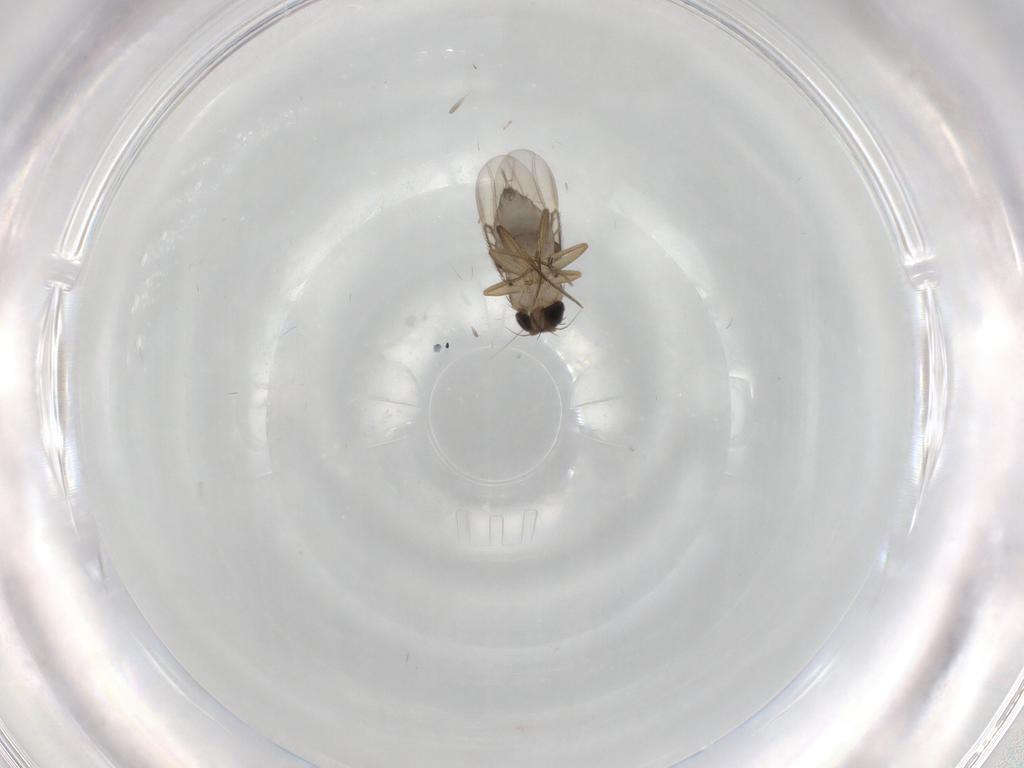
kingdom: Animalia
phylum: Arthropoda
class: Insecta
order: Diptera
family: Phoridae
